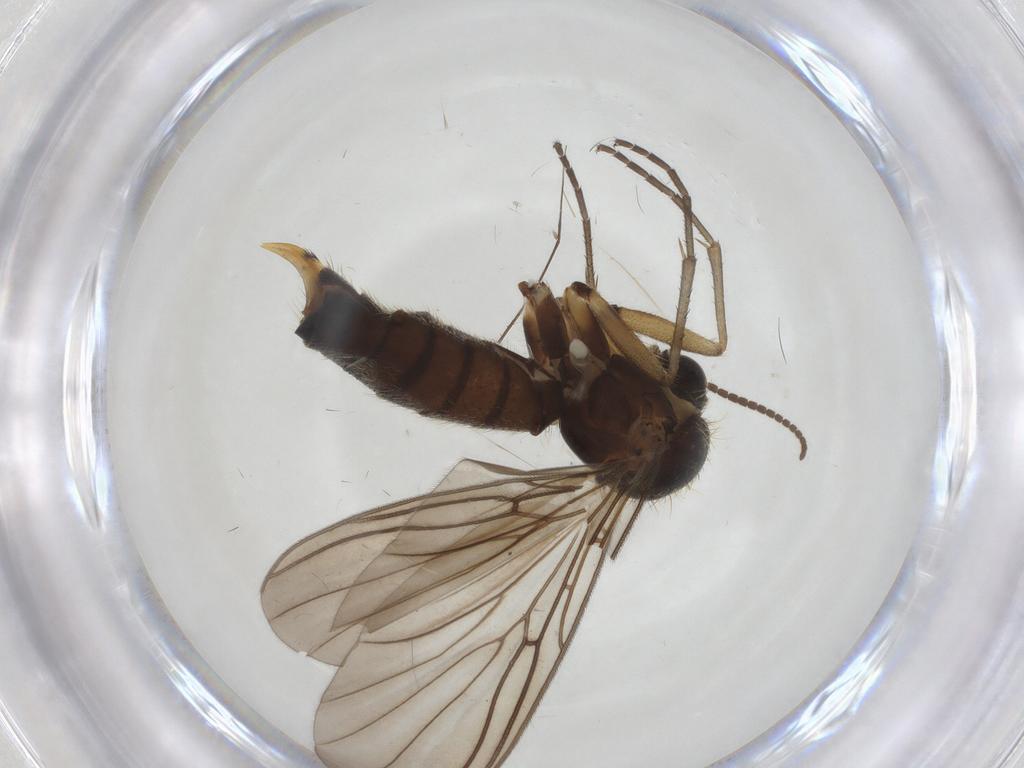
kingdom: Animalia
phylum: Arthropoda
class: Insecta
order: Diptera
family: Mycetophilidae
